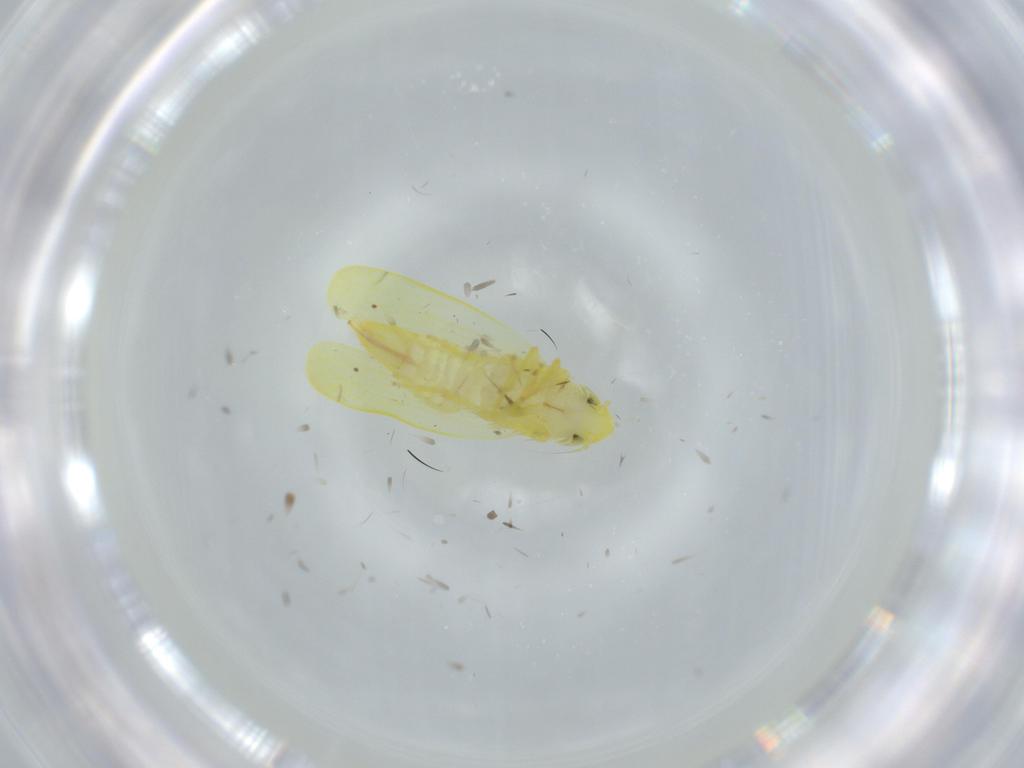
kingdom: Animalia
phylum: Arthropoda
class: Insecta
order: Hemiptera
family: Cicadellidae
